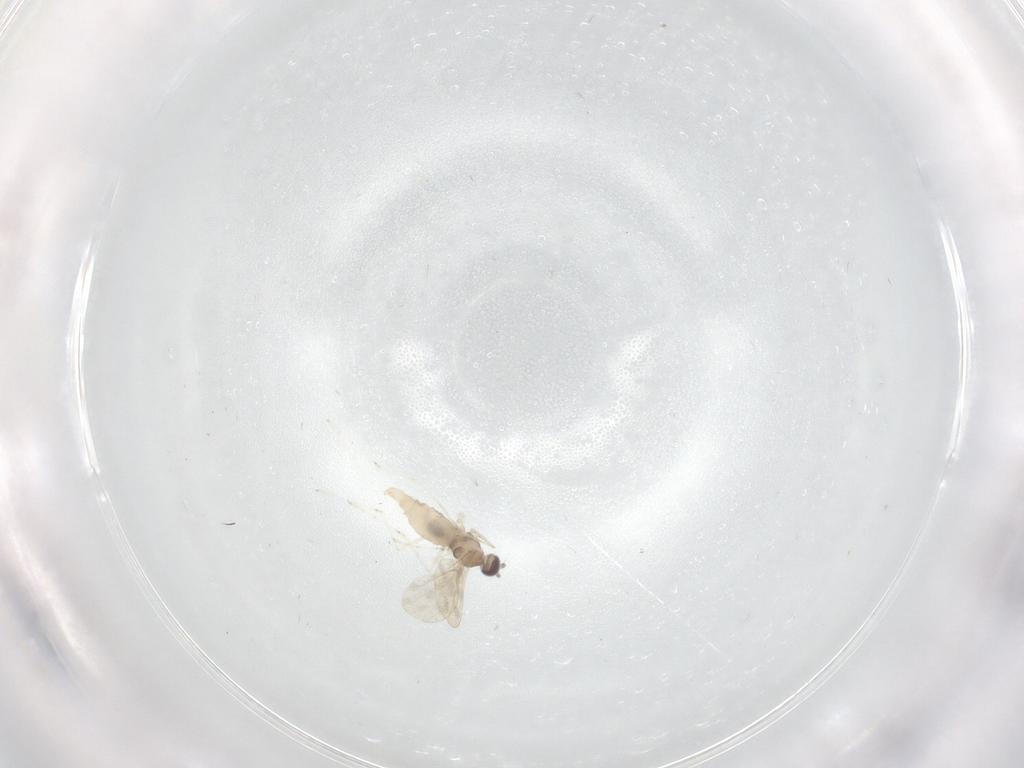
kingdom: Animalia
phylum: Arthropoda
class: Insecta
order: Diptera
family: Cecidomyiidae
